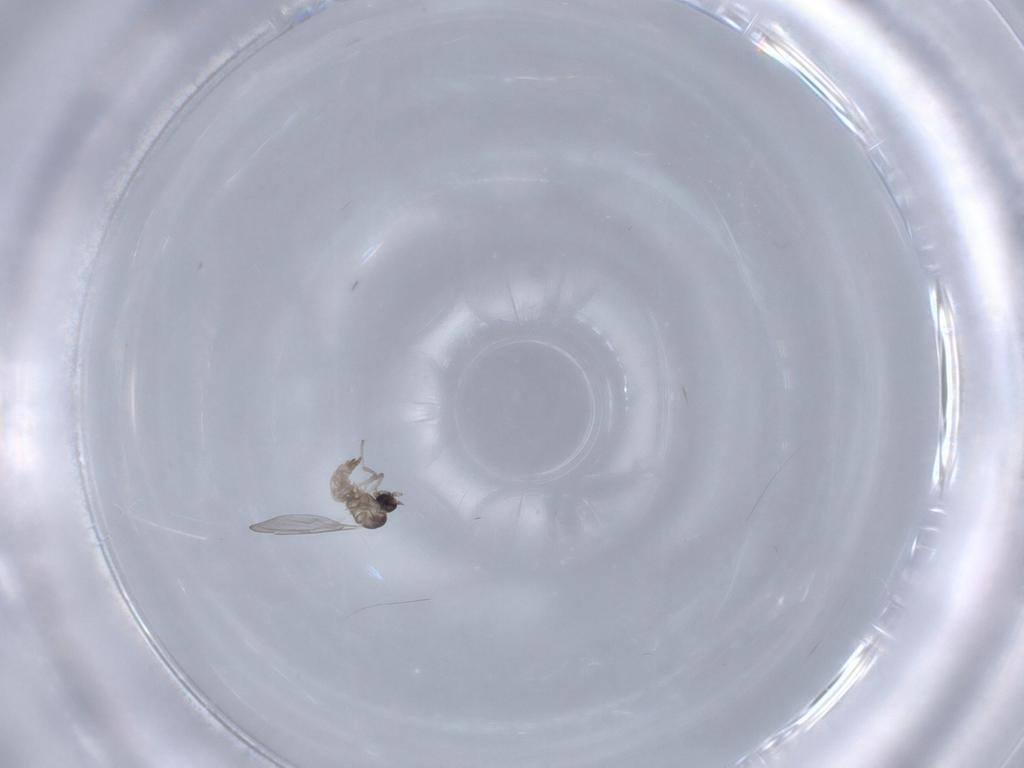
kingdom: Animalia
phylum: Arthropoda
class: Insecta
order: Diptera
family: Cecidomyiidae
